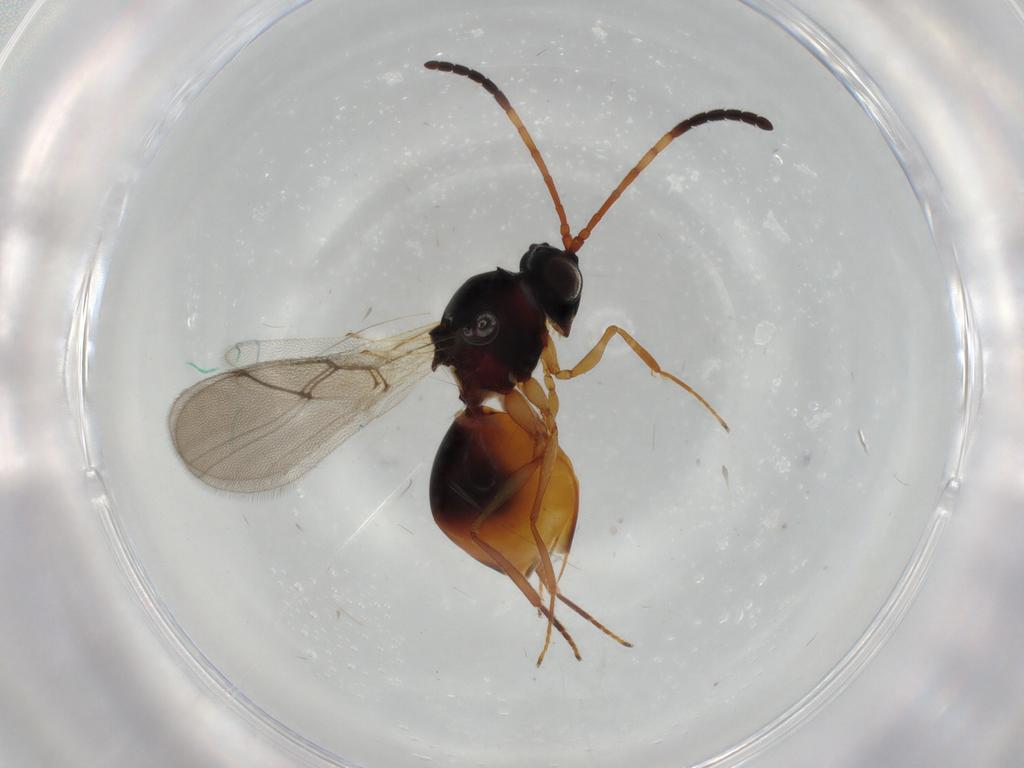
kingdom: Animalia
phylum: Arthropoda
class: Insecta
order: Hymenoptera
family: Figitidae
